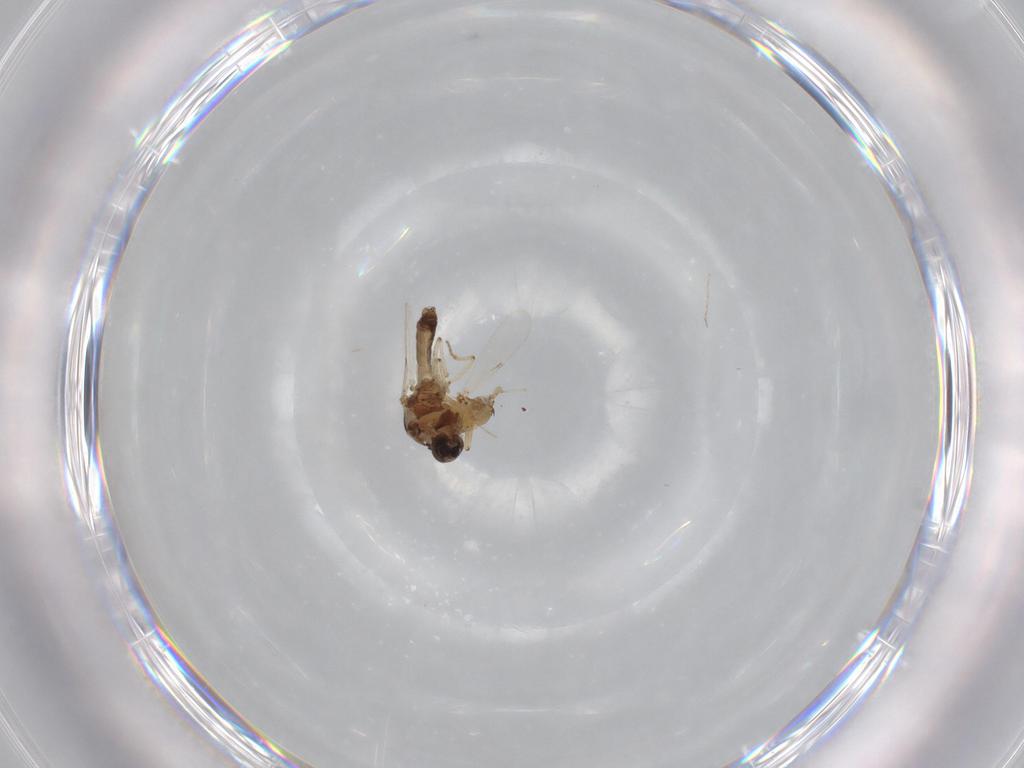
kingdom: Animalia
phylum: Arthropoda
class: Insecta
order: Diptera
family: Ceratopogonidae
